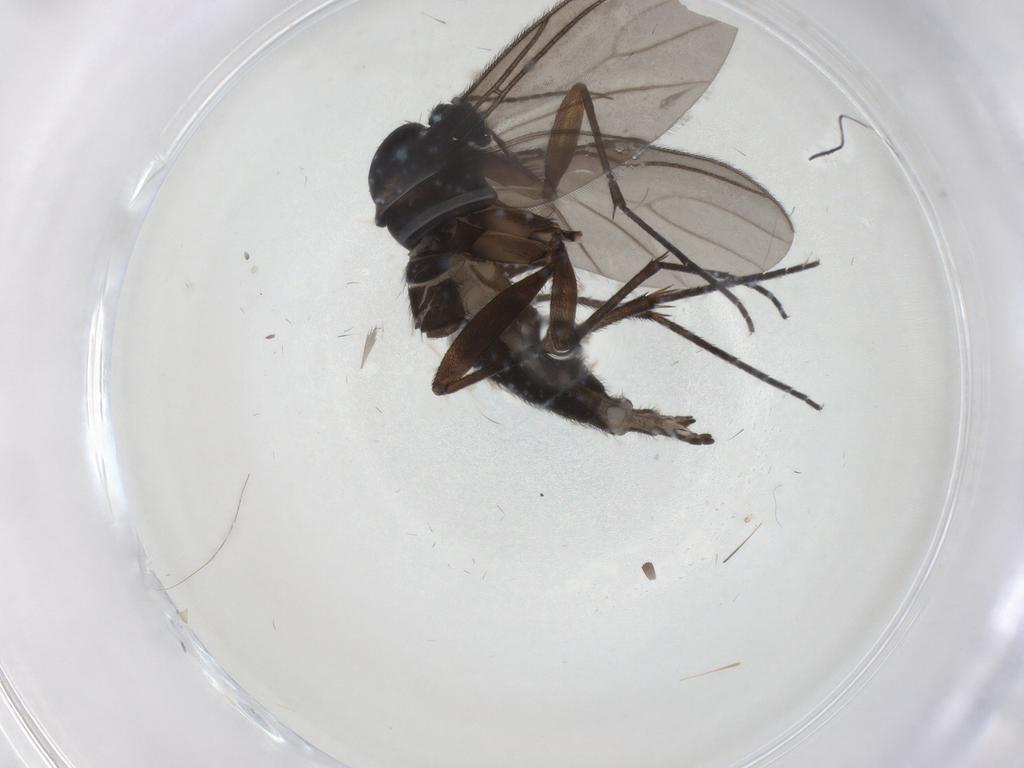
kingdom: Animalia
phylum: Arthropoda
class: Insecta
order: Diptera
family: Sciaridae
